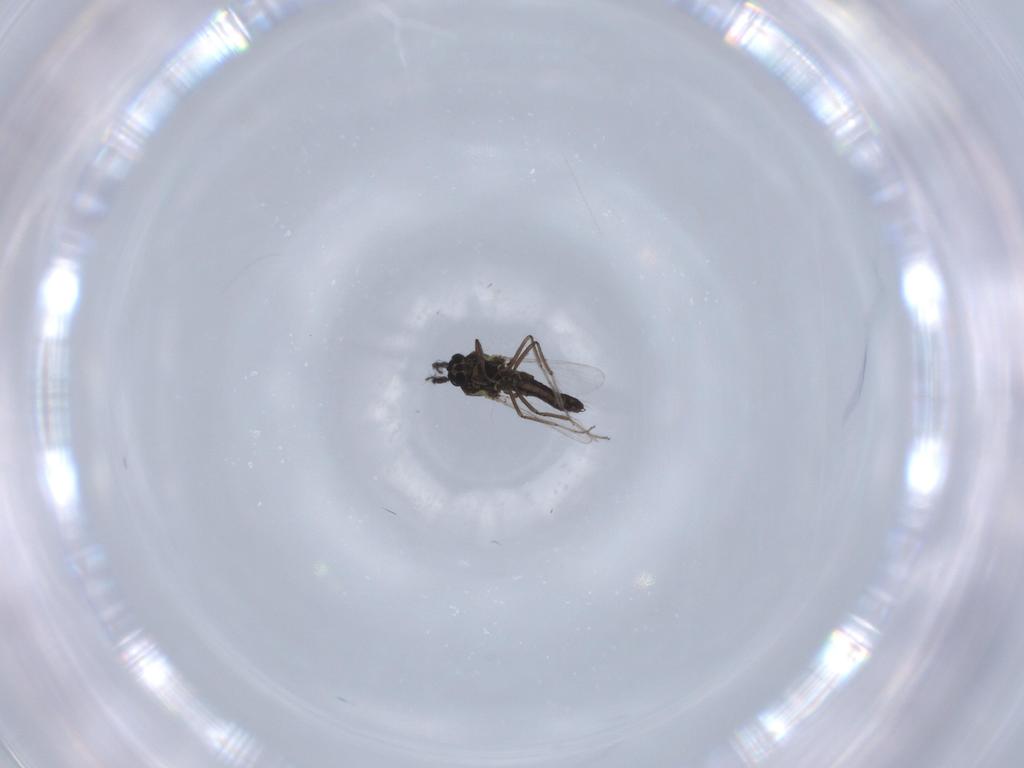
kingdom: Animalia
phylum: Arthropoda
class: Insecta
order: Diptera
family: Ceratopogonidae
